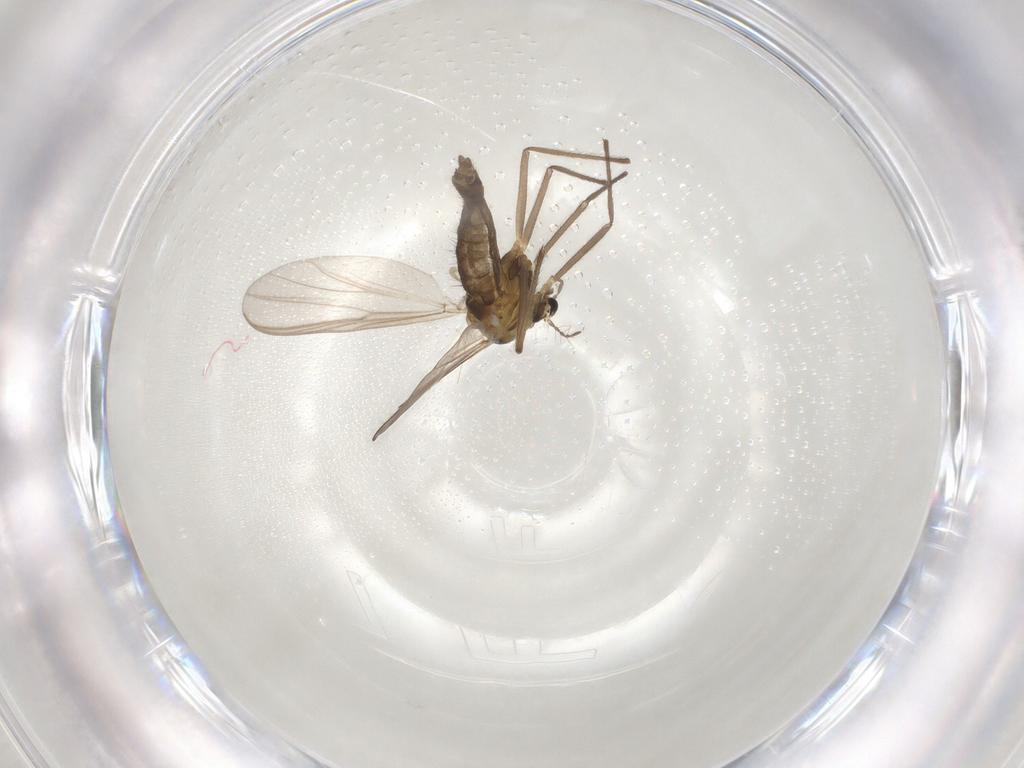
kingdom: Animalia
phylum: Arthropoda
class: Insecta
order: Diptera
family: Chironomidae
